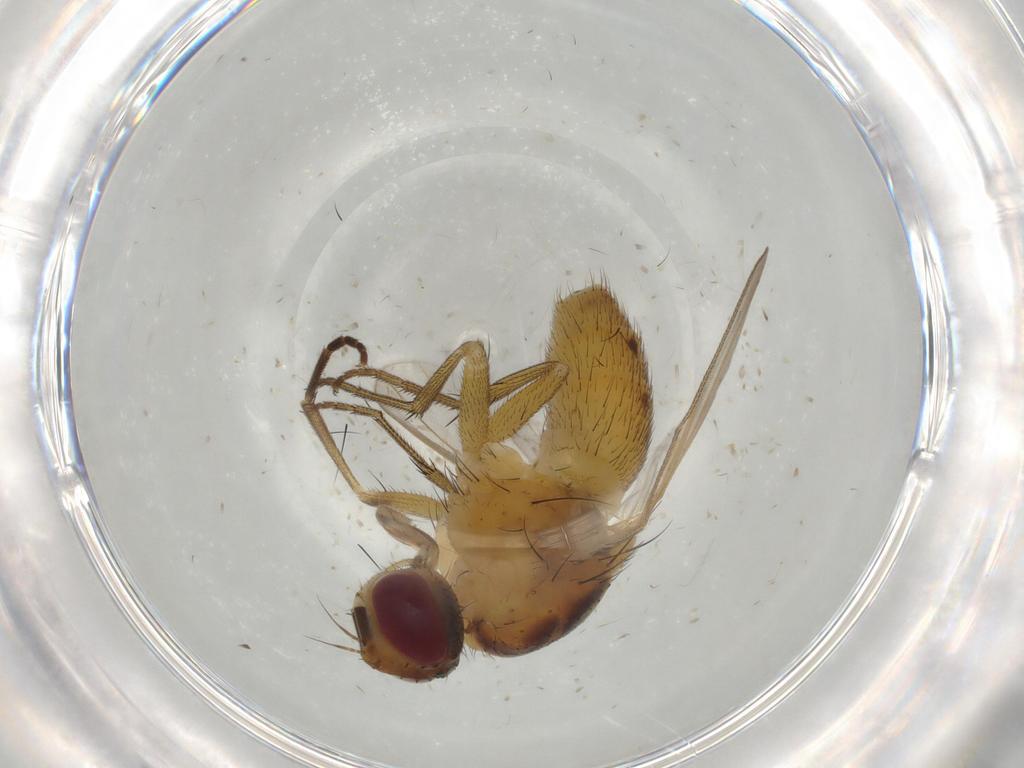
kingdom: Animalia
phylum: Arthropoda
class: Insecta
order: Diptera
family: Muscidae
